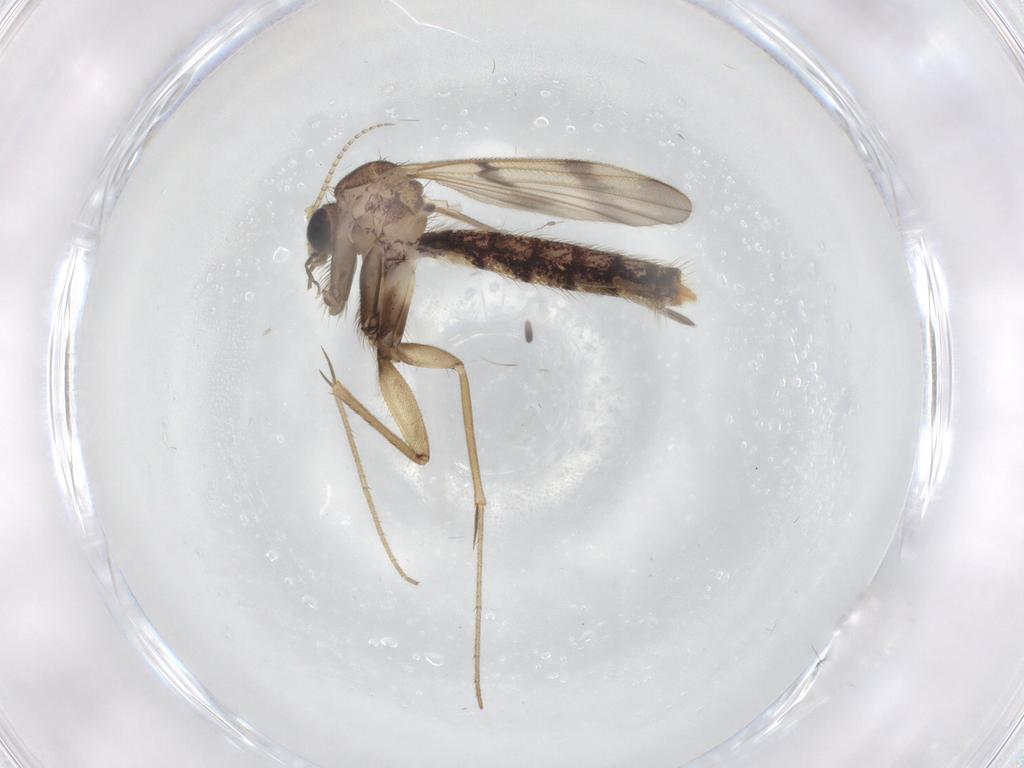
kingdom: Animalia
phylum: Arthropoda
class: Insecta
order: Diptera
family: Mycetophilidae
